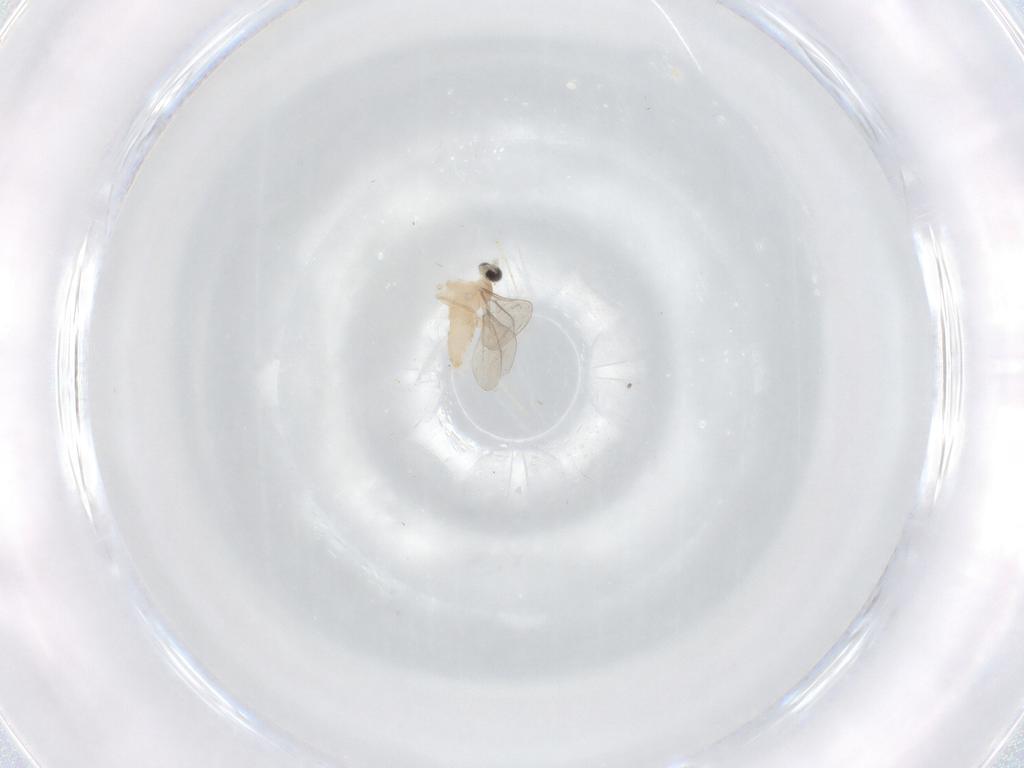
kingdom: Animalia
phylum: Arthropoda
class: Insecta
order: Diptera
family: Cecidomyiidae
